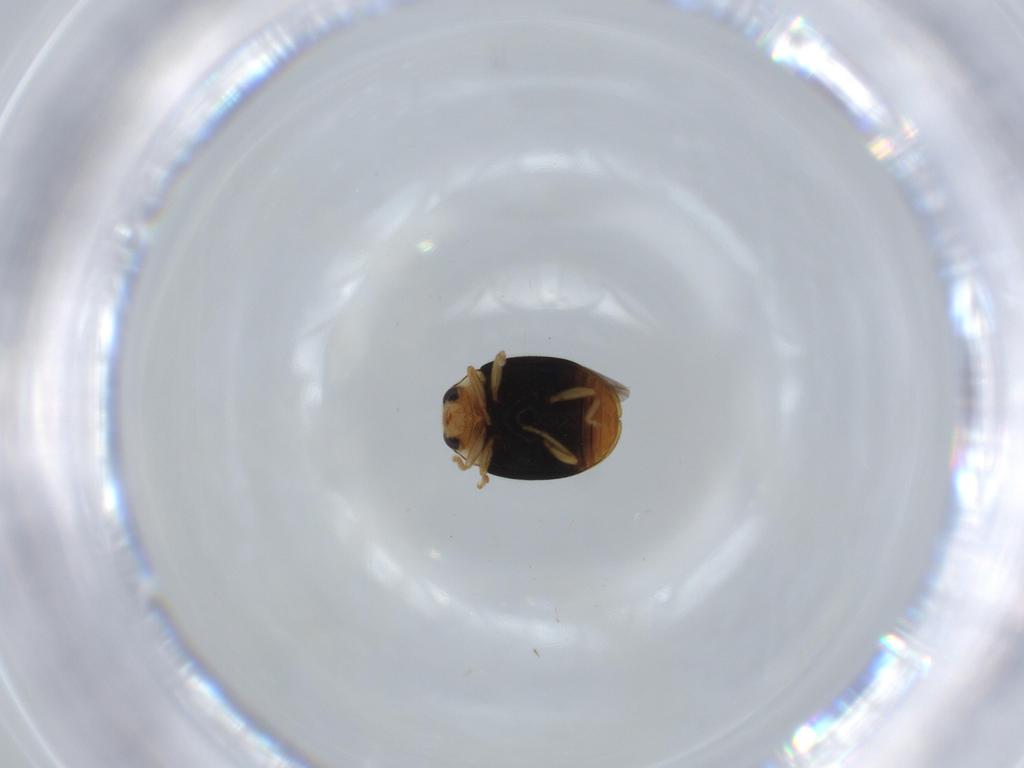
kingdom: Animalia
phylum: Arthropoda
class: Insecta
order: Coleoptera
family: Coccinellidae
